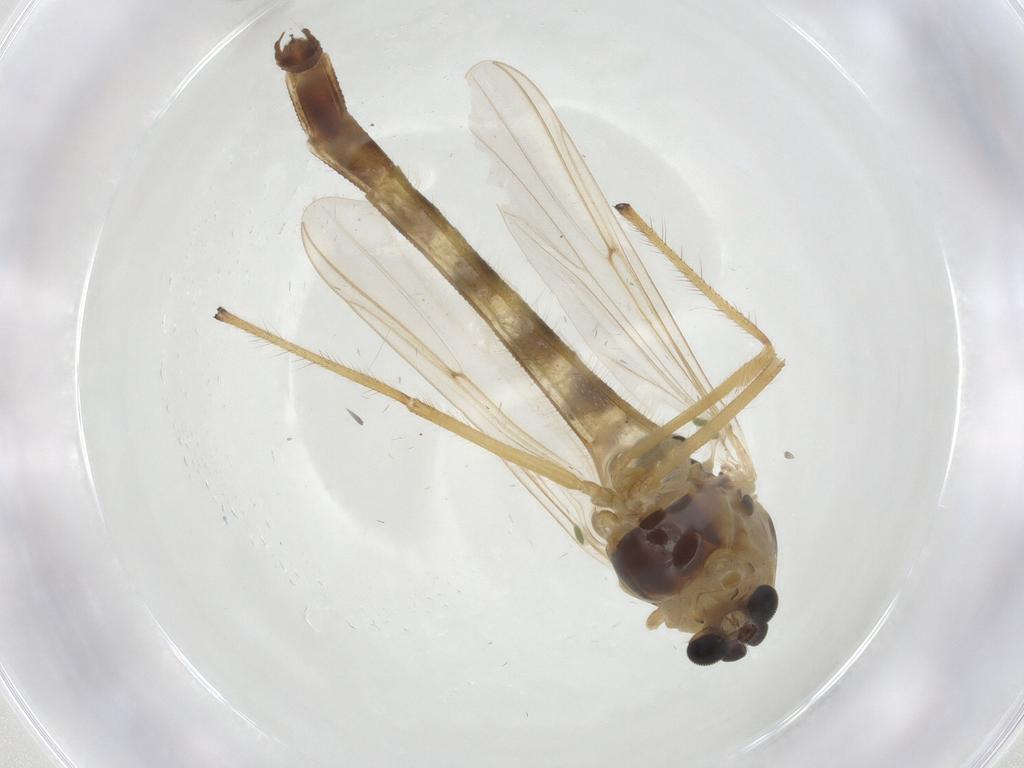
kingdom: Animalia
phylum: Arthropoda
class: Insecta
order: Diptera
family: Chironomidae
